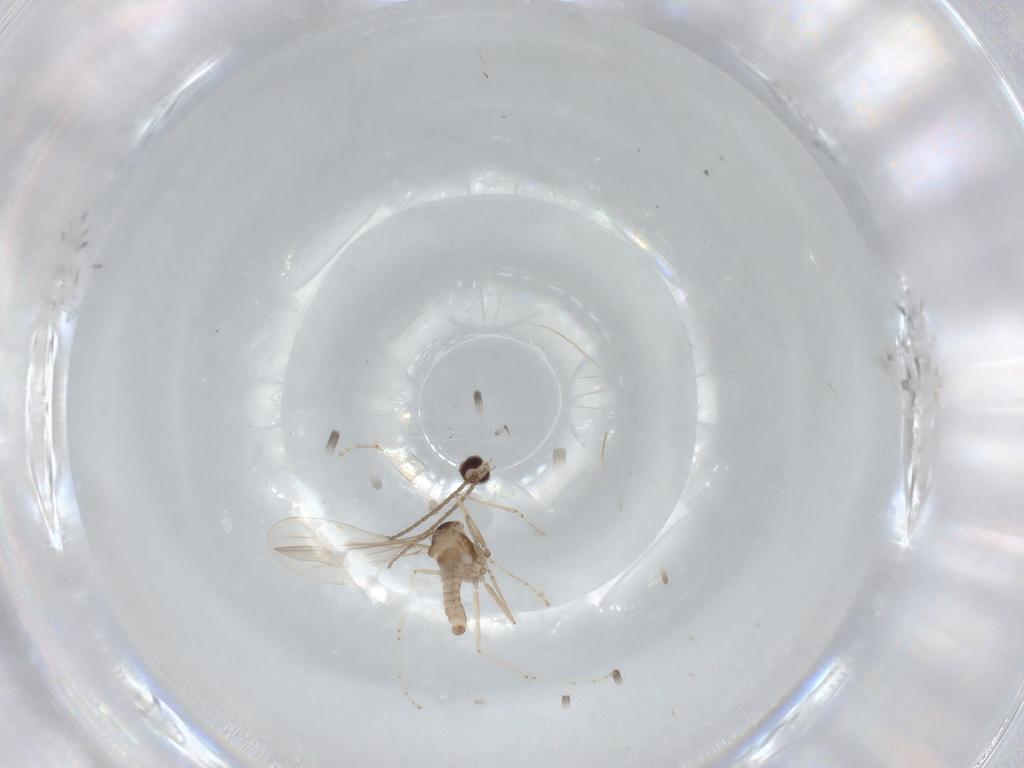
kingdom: Animalia
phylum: Arthropoda
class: Insecta
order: Diptera
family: Cecidomyiidae
